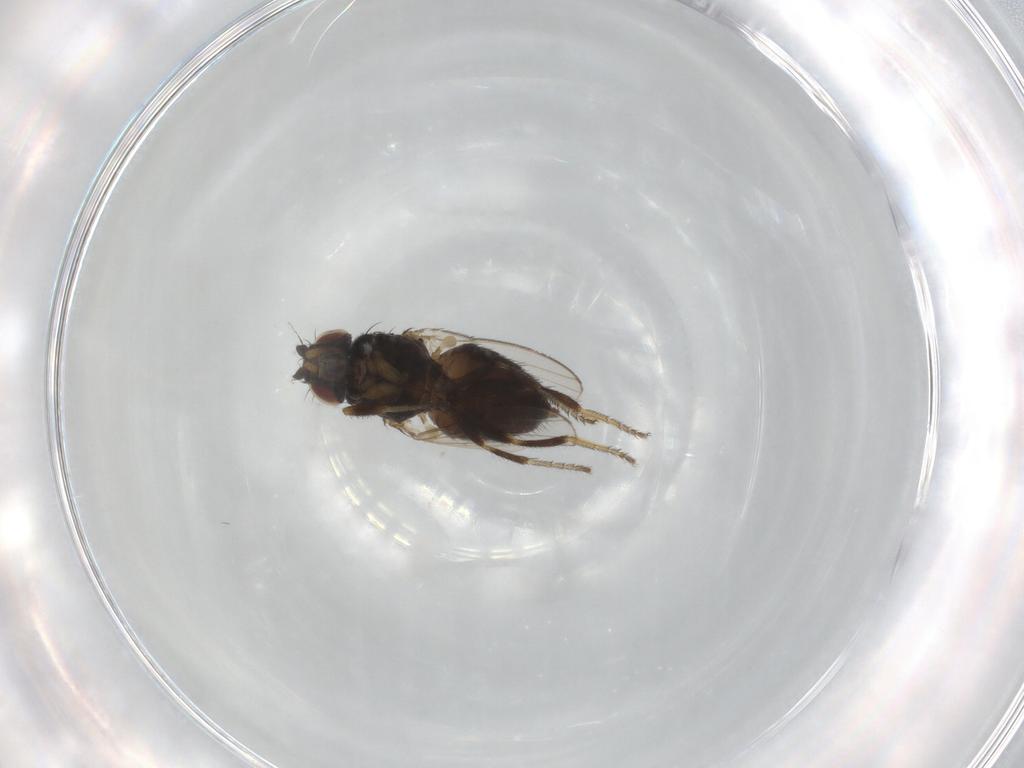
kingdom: Animalia
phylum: Arthropoda
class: Insecta
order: Diptera
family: Milichiidae
